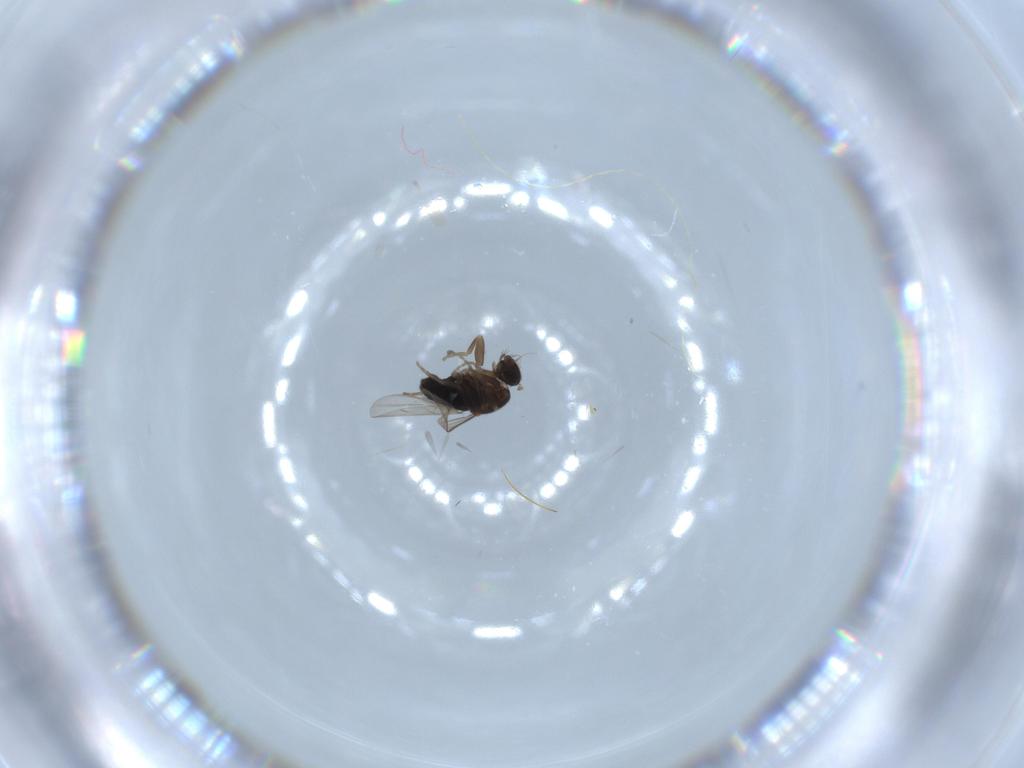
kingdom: Animalia
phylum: Arthropoda
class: Insecta
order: Diptera
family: Phoridae
